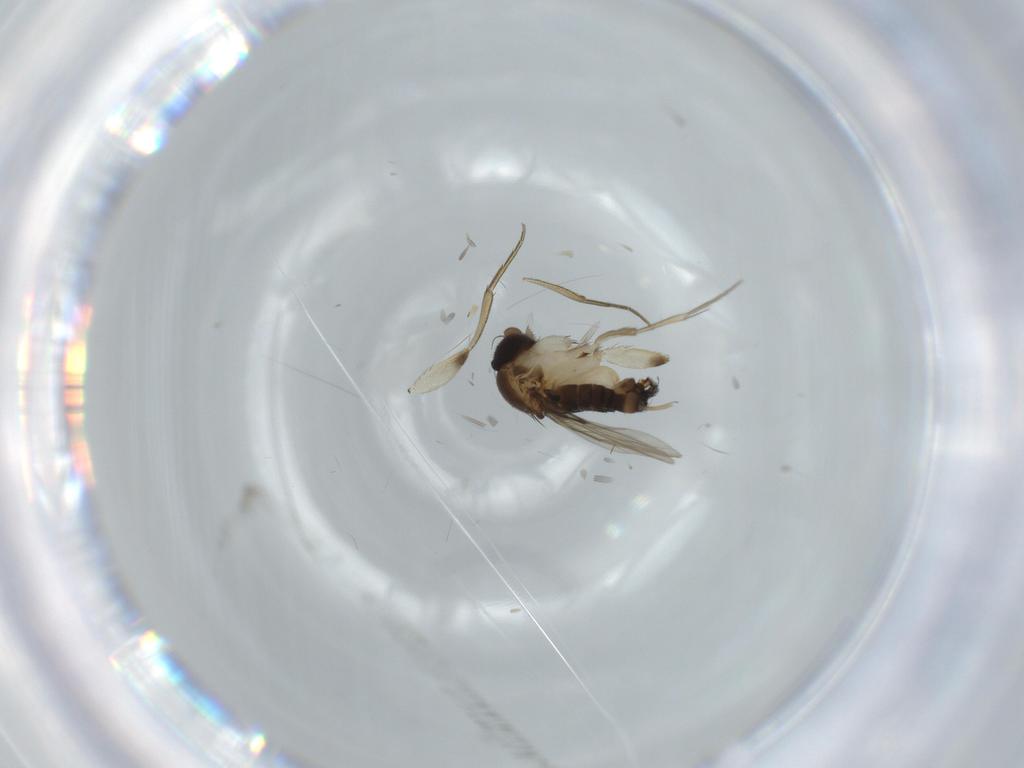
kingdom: Animalia
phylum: Arthropoda
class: Insecta
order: Diptera
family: Phoridae
